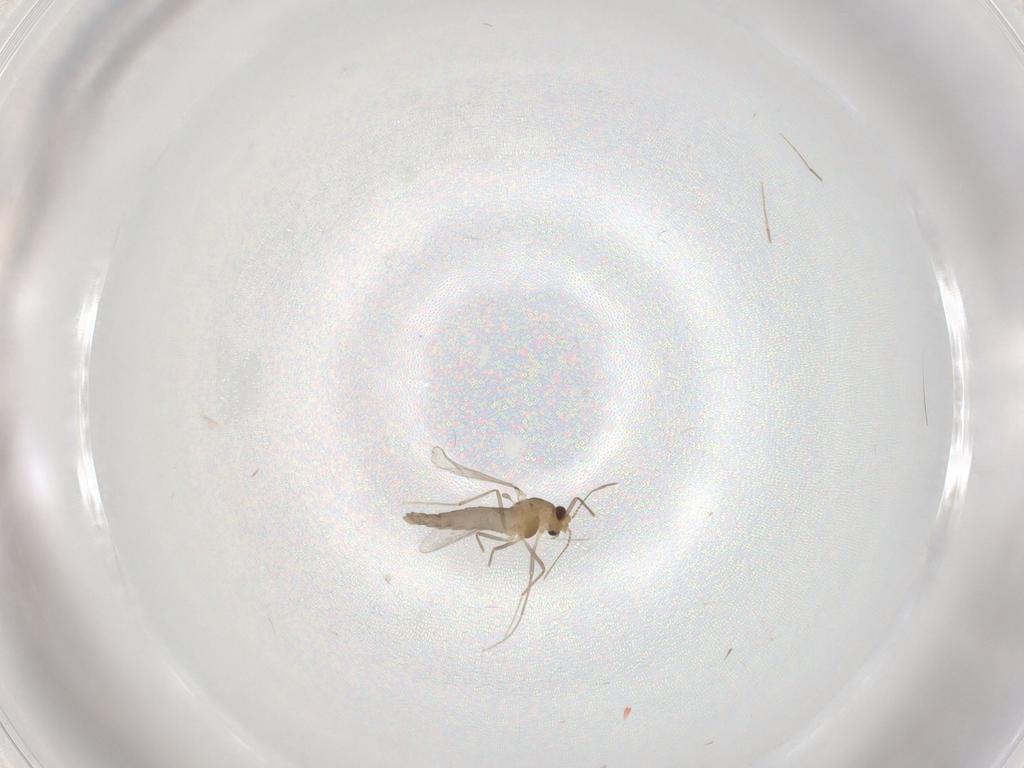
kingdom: Animalia
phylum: Arthropoda
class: Insecta
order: Diptera
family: Chironomidae
